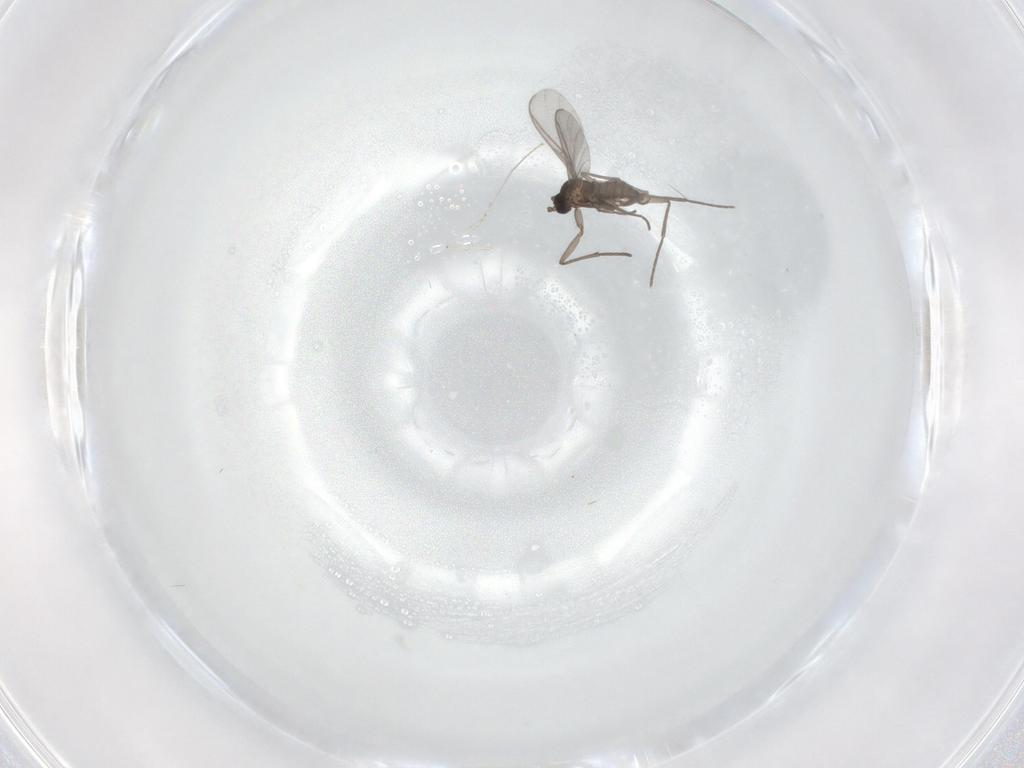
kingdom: Animalia
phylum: Arthropoda
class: Insecta
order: Diptera
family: Sciaridae
